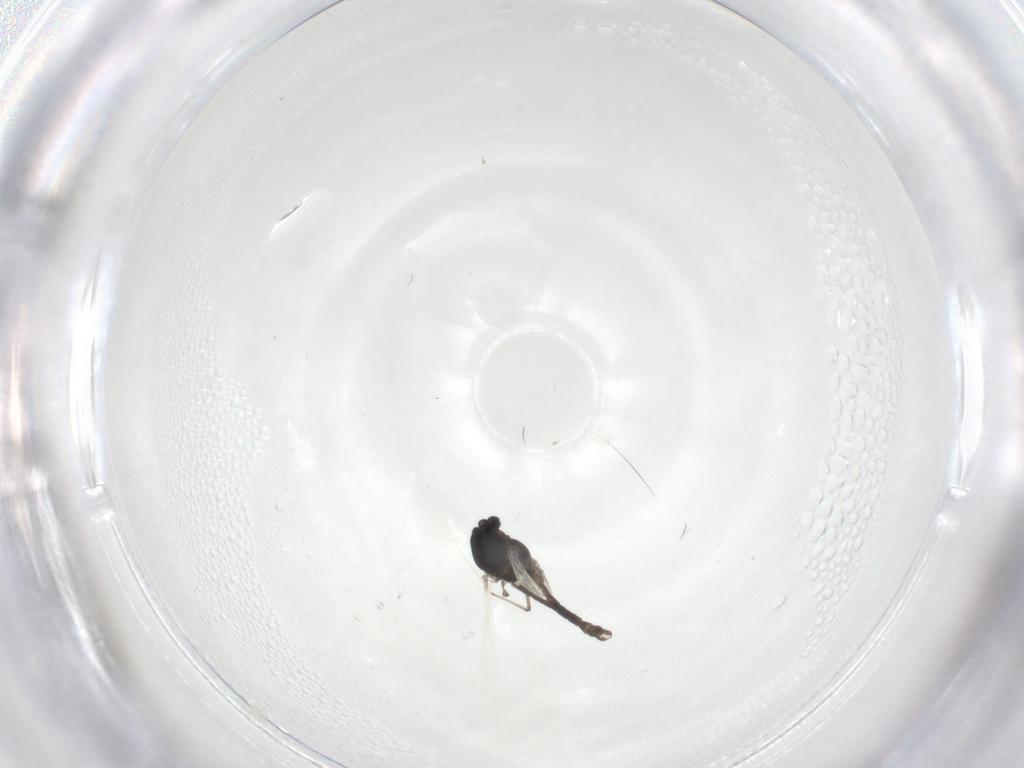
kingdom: Animalia
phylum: Arthropoda
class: Insecta
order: Diptera
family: Chironomidae
